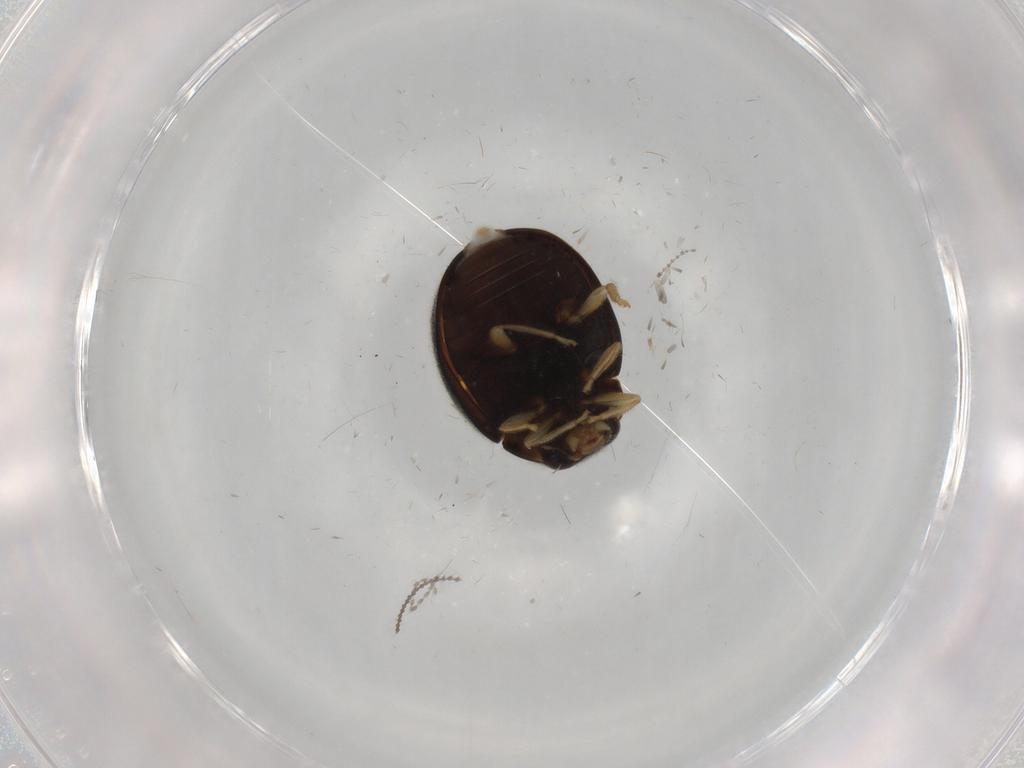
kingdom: Animalia
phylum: Arthropoda
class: Insecta
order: Coleoptera
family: Coccinellidae
